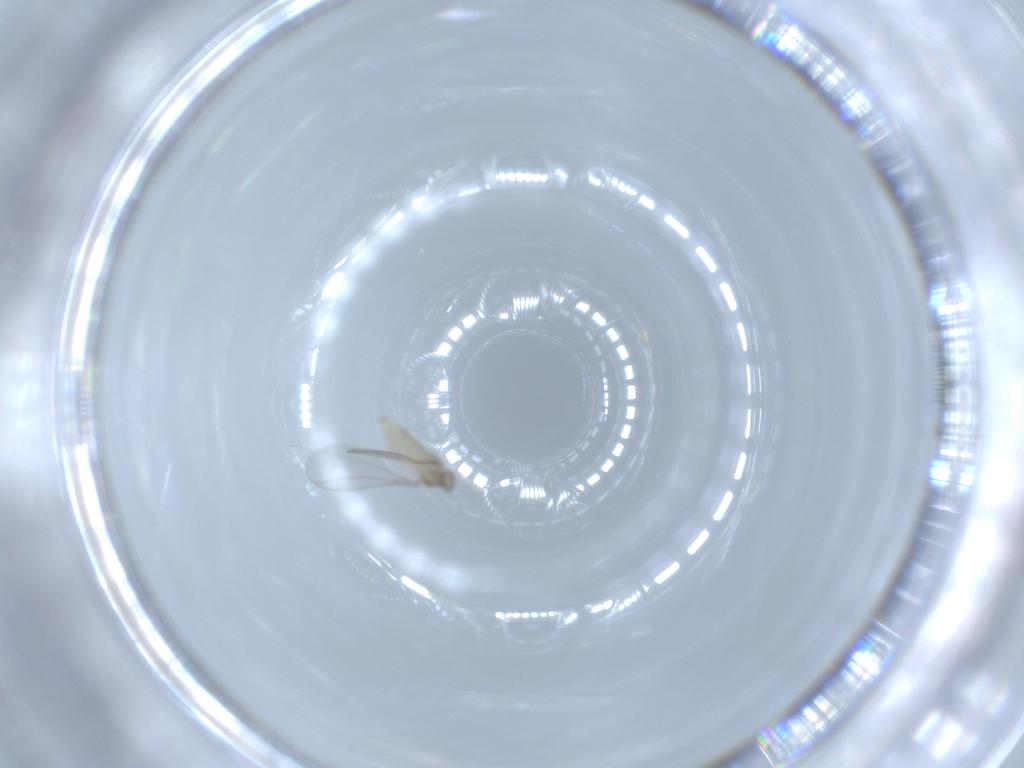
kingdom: Animalia
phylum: Arthropoda
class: Insecta
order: Diptera
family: Cecidomyiidae
